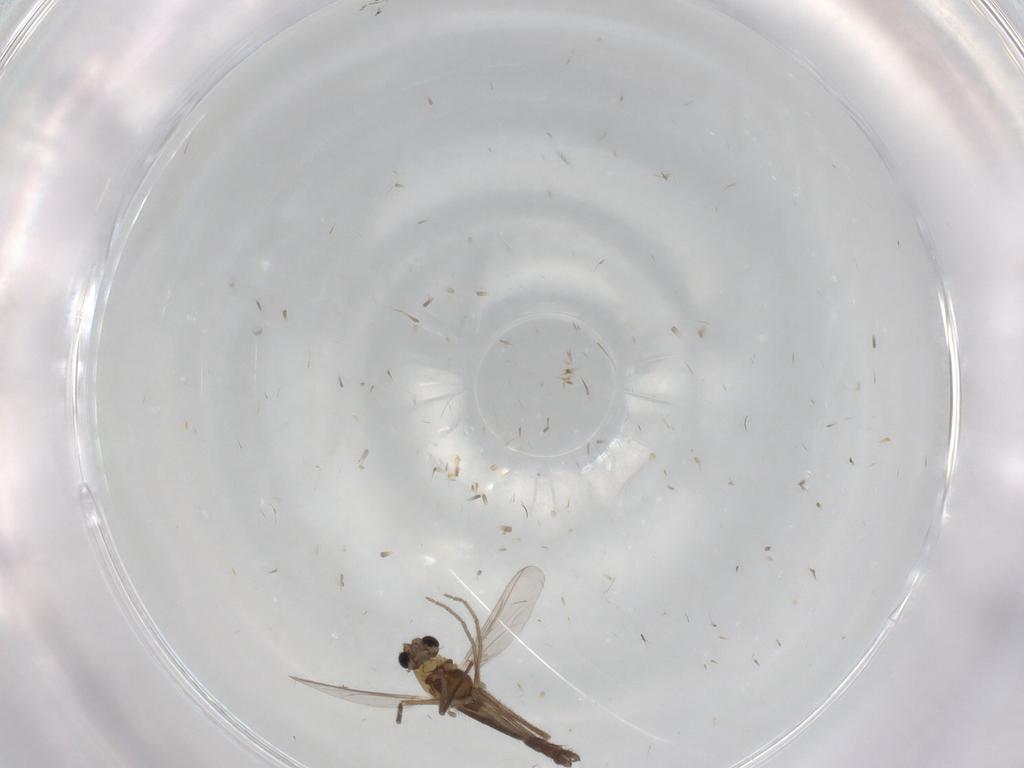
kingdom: Animalia
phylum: Arthropoda
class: Insecta
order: Diptera
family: Chironomidae
